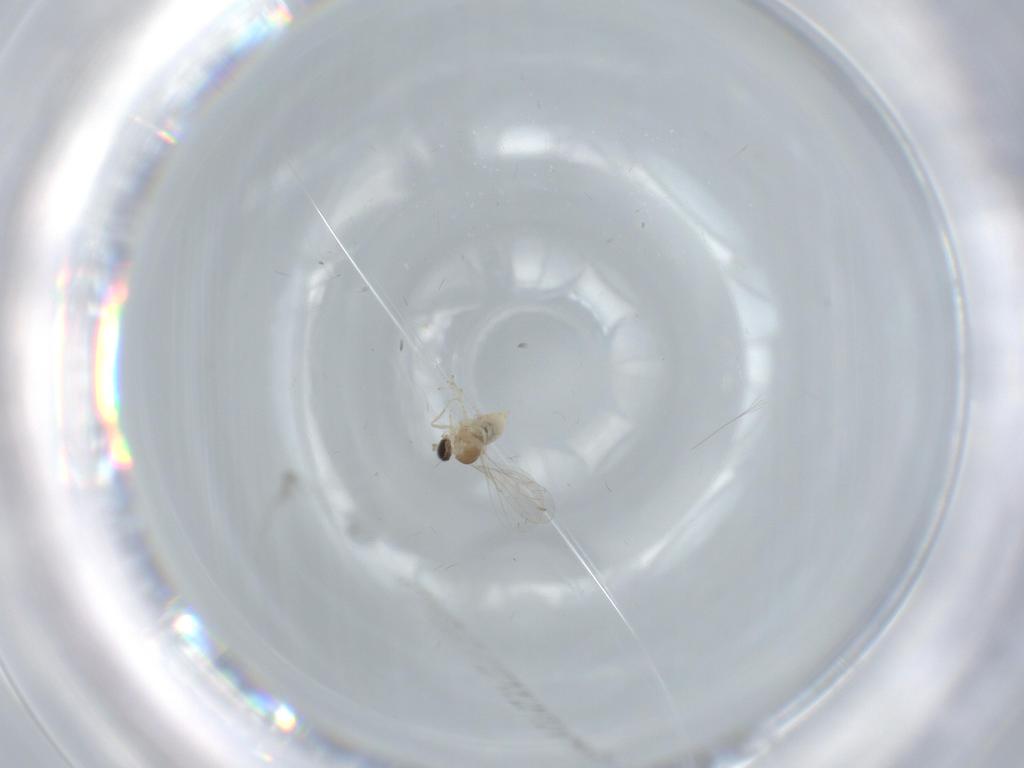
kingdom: Animalia
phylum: Arthropoda
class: Insecta
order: Diptera
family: Cecidomyiidae
